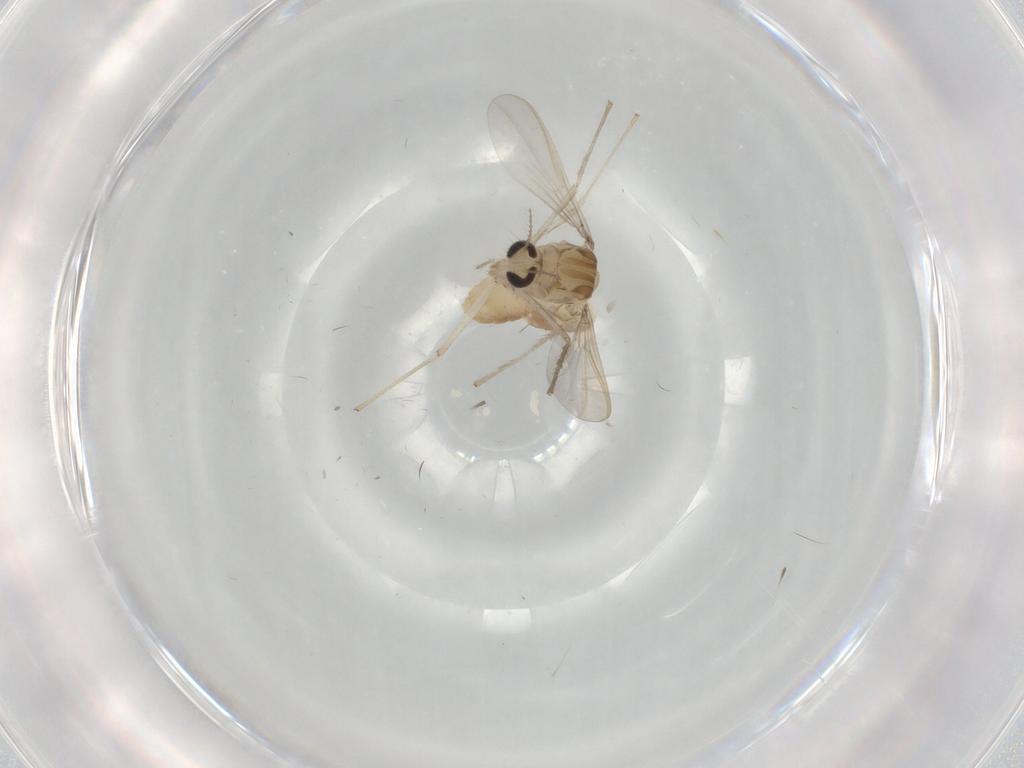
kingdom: Animalia
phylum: Arthropoda
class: Insecta
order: Diptera
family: Chironomidae
